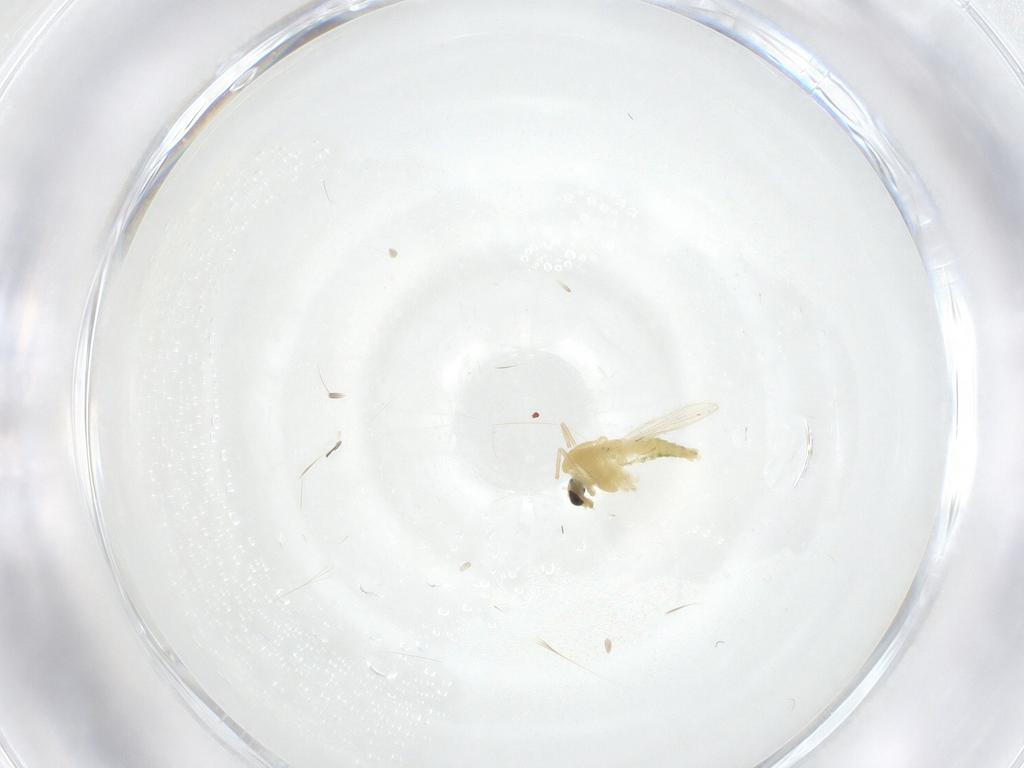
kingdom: Animalia
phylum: Arthropoda
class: Insecta
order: Diptera
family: Chironomidae
